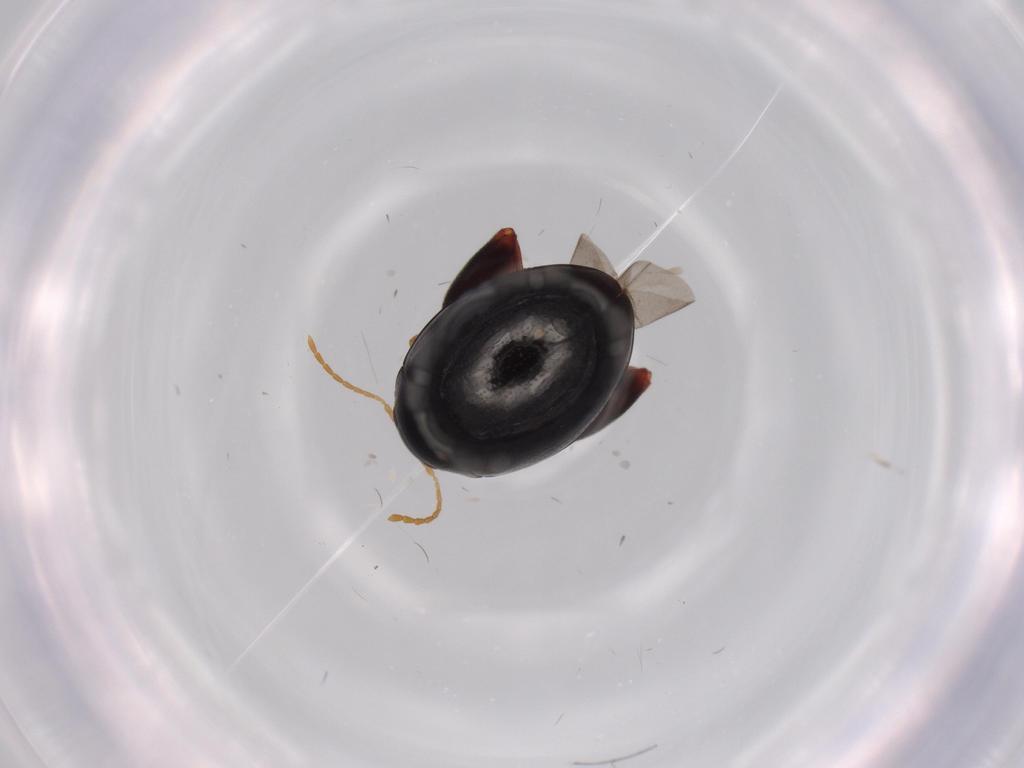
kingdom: Animalia
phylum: Arthropoda
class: Insecta
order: Coleoptera
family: Chrysomelidae
